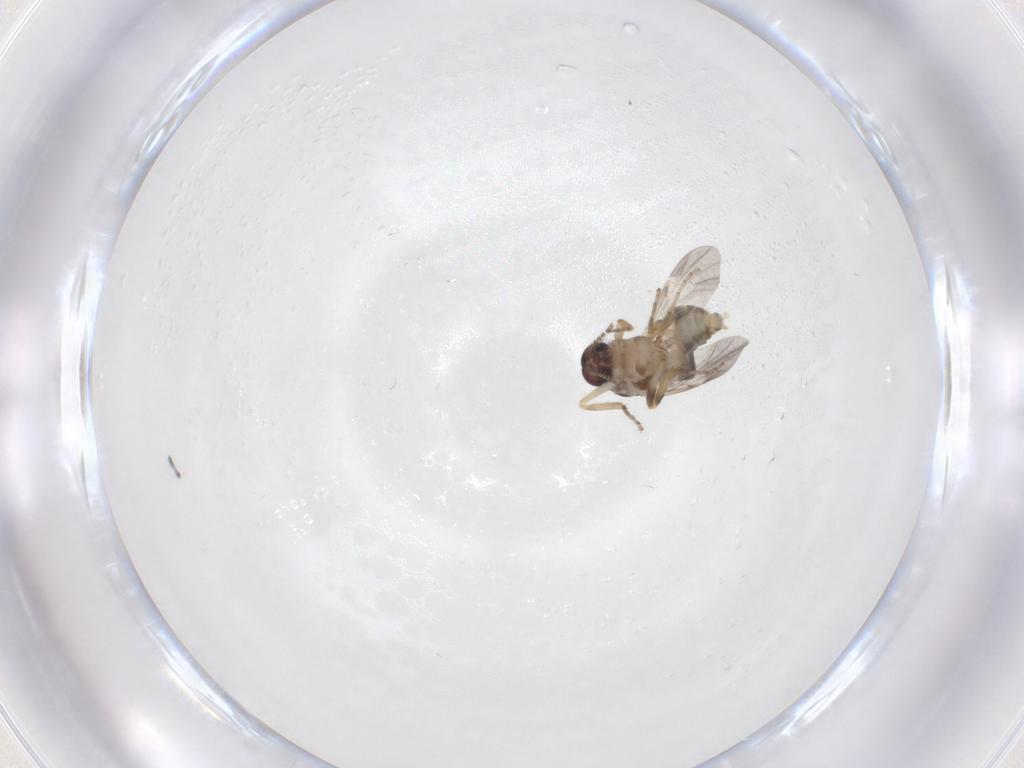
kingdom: Animalia
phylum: Arthropoda
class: Insecta
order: Diptera
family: Ceratopogonidae
